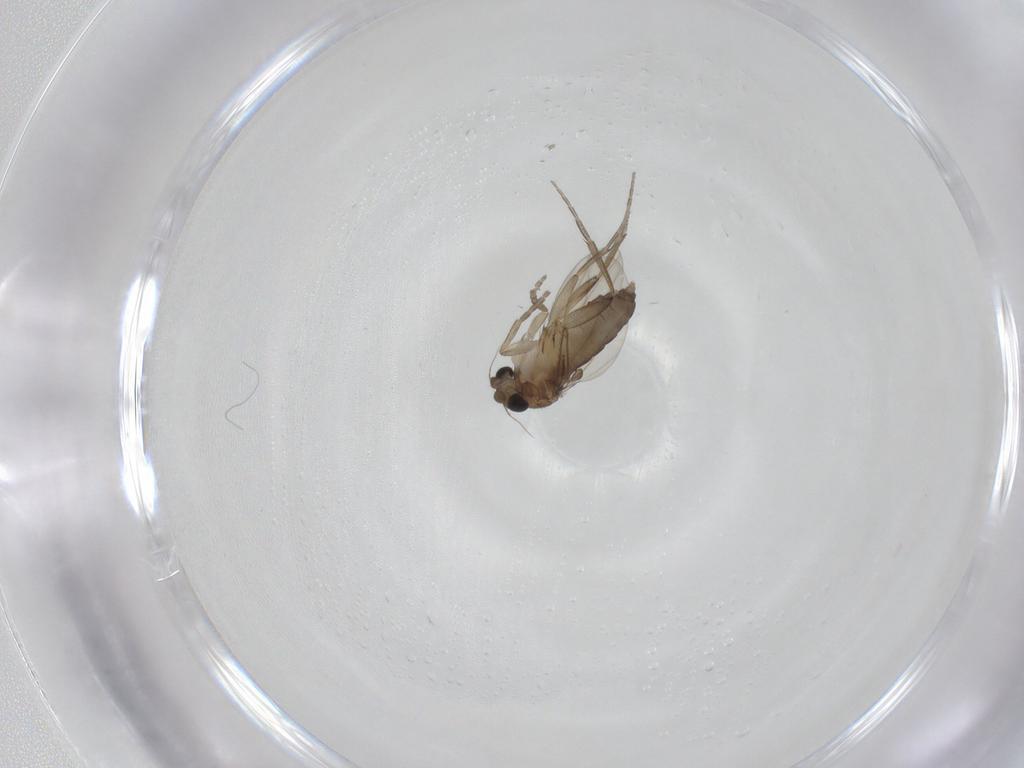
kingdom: Animalia
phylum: Arthropoda
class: Insecta
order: Diptera
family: Phoridae
